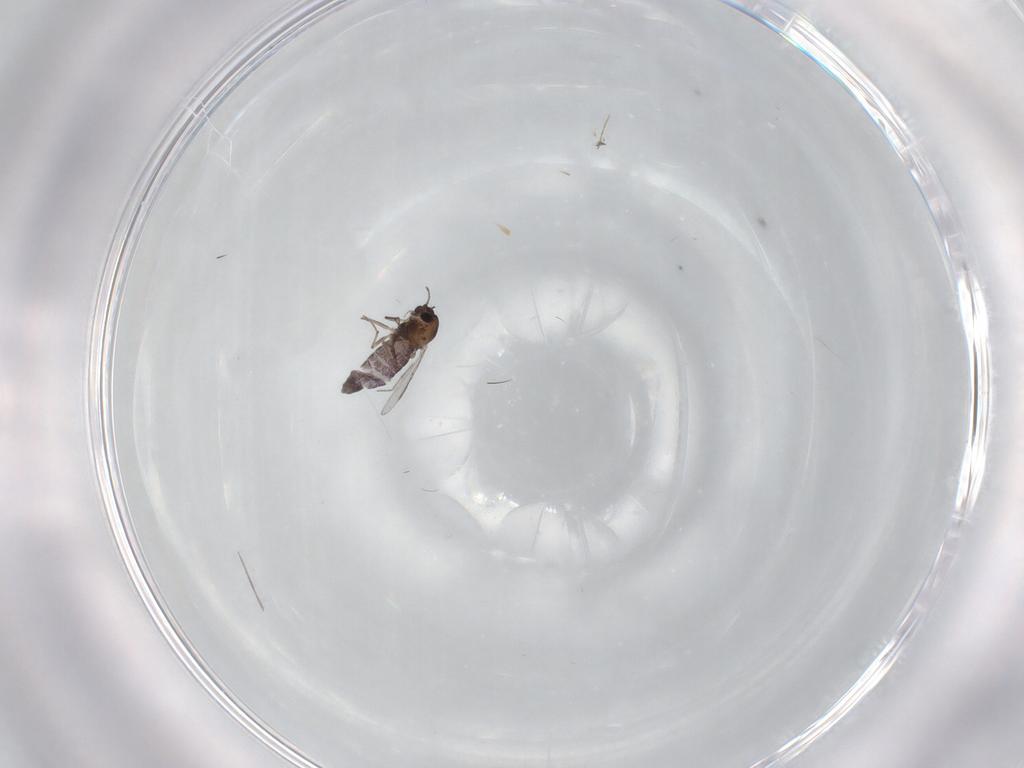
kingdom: Animalia
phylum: Arthropoda
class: Insecta
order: Diptera
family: Chironomidae
